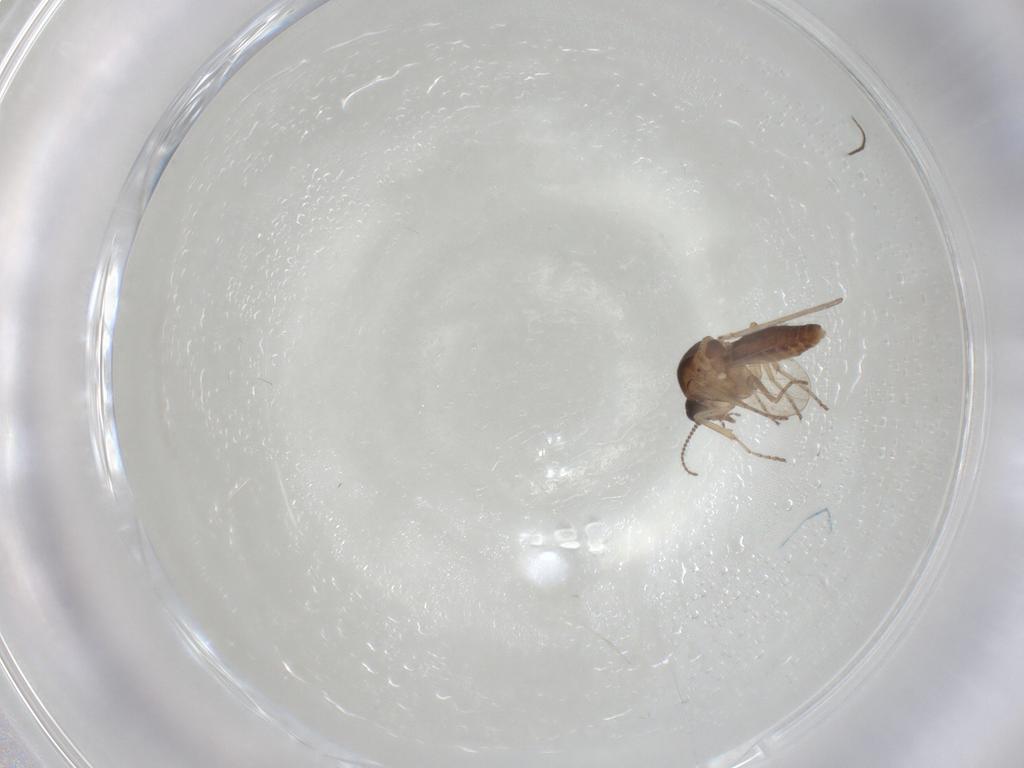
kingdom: Animalia
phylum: Arthropoda
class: Insecta
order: Diptera
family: Ceratopogonidae
